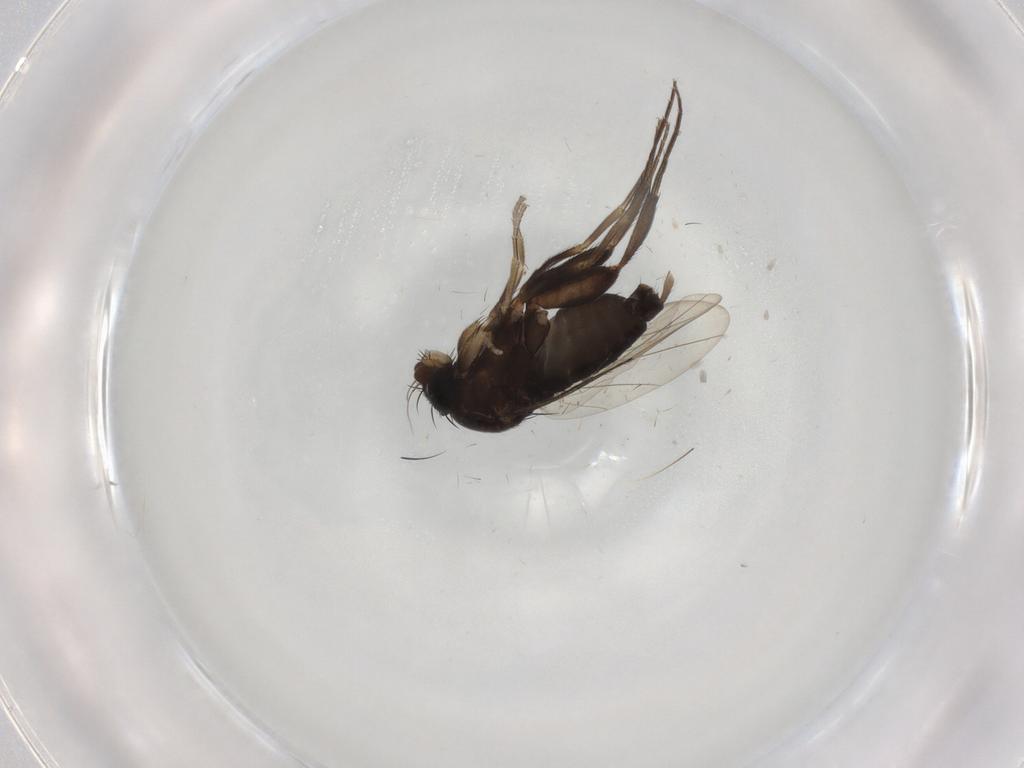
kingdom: Animalia
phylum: Arthropoda
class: Insecta
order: Diptera
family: Phoridae
